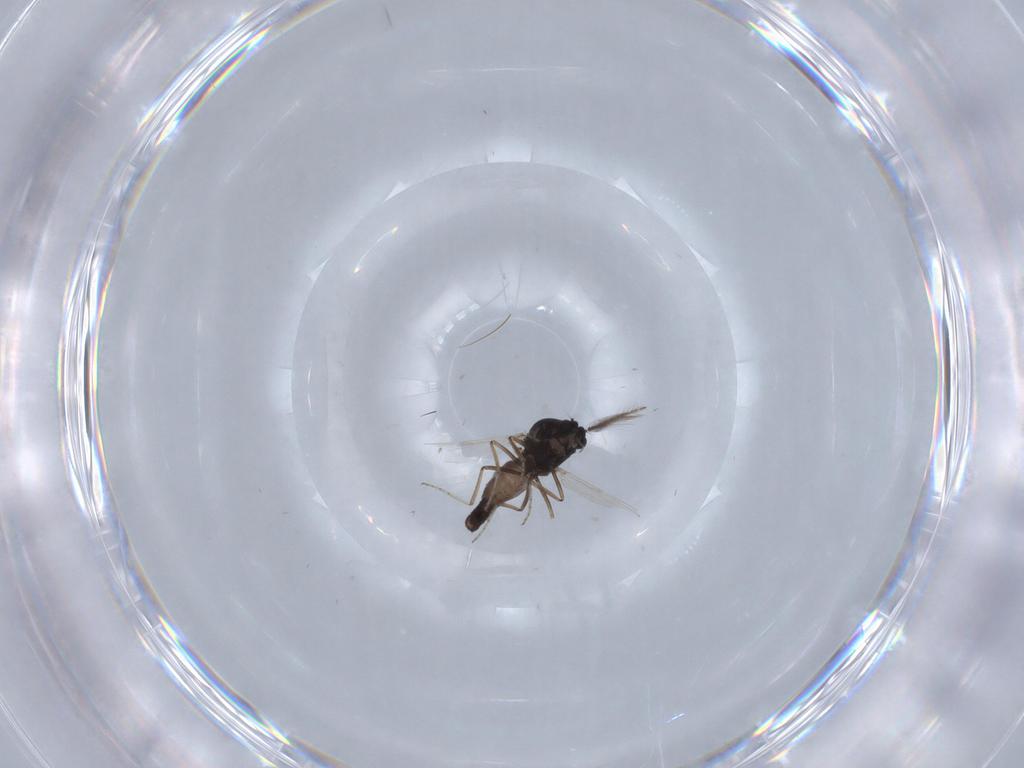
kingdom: Animalia
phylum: Arthropoda
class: Insecta
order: Diptera
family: Ceratopogonidae
